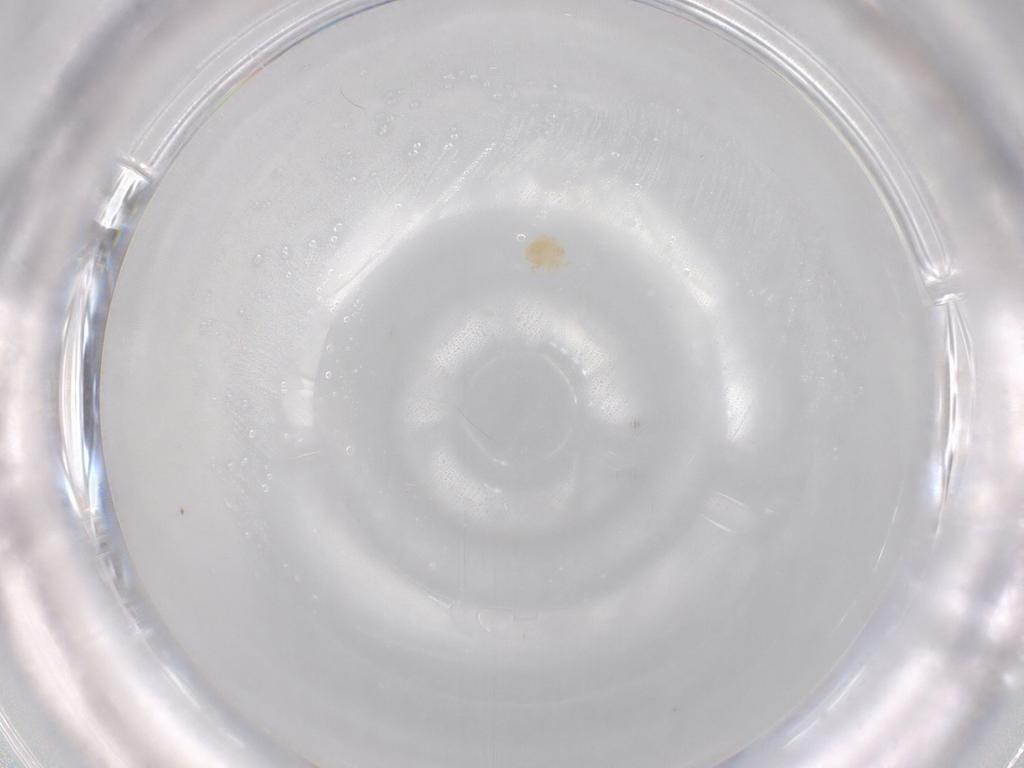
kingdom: Animalia
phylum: Arthropoda
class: Arachnida
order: Trombidiformes
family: Sperchontidae
